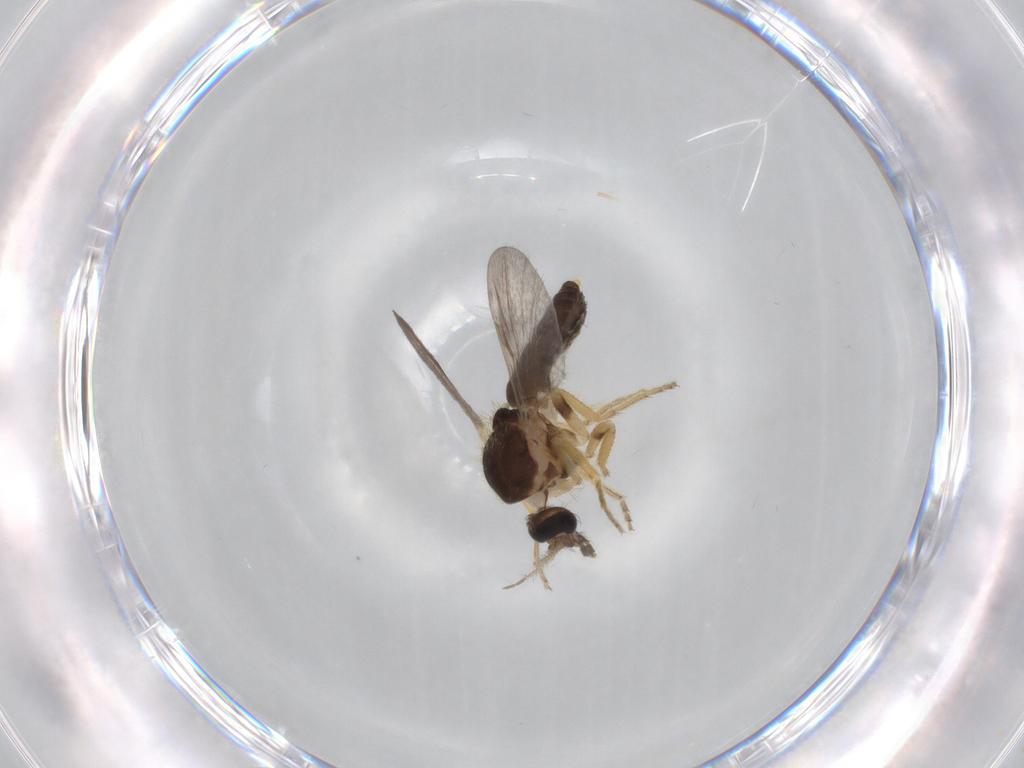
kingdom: Animalia
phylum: Arthropoda
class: Insecta
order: Diptera
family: Ceratopogonidae
